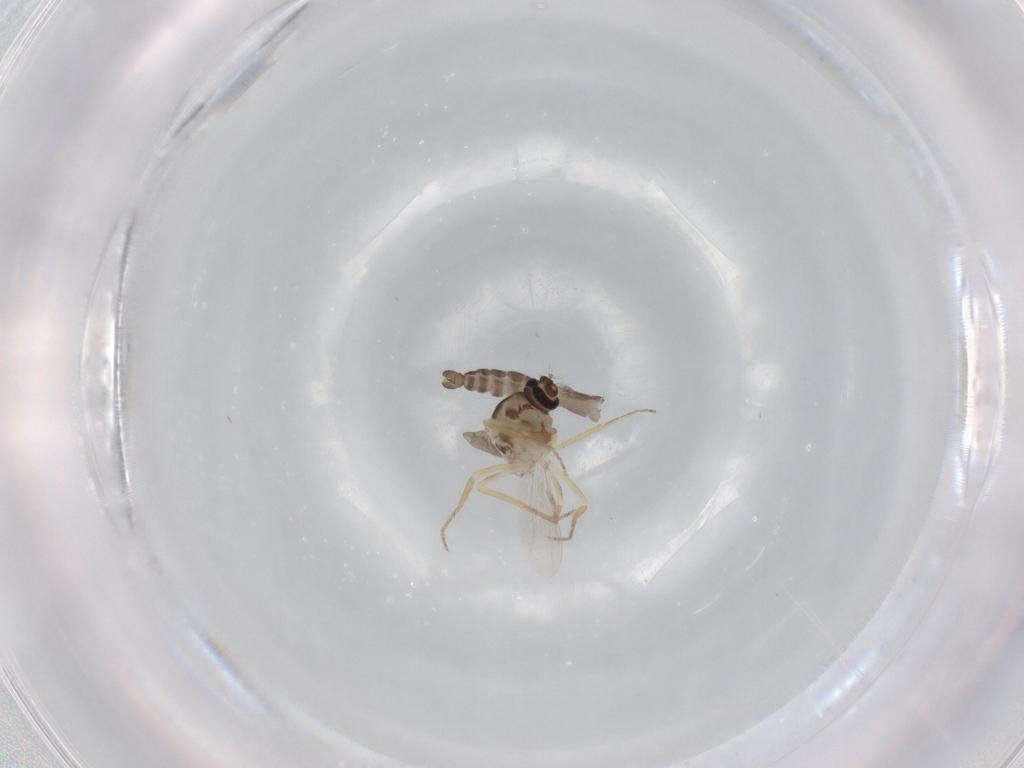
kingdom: Animalia
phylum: Arthropoda
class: Insecta
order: Diptera
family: Ceratopogonidae
